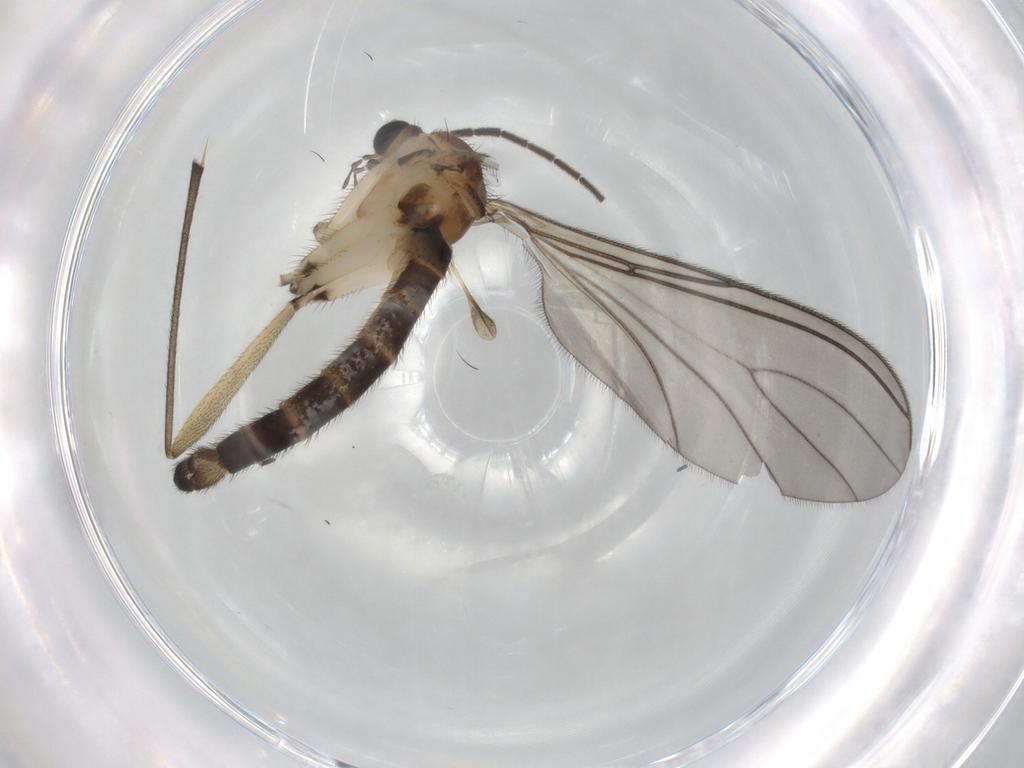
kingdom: Animalia
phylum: Arthropoda
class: Insecta
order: Diptera
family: Sciaridae
